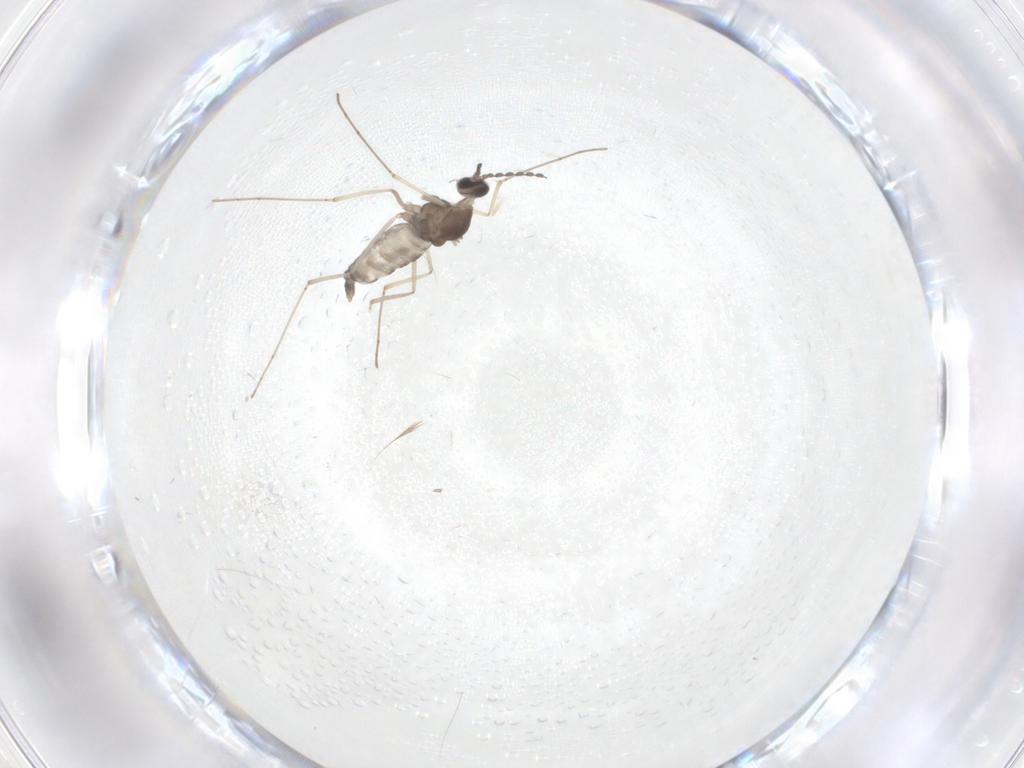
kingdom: Animalia
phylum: Arthropoda
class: Insecta
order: Diptera
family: Cecidomyiidae
